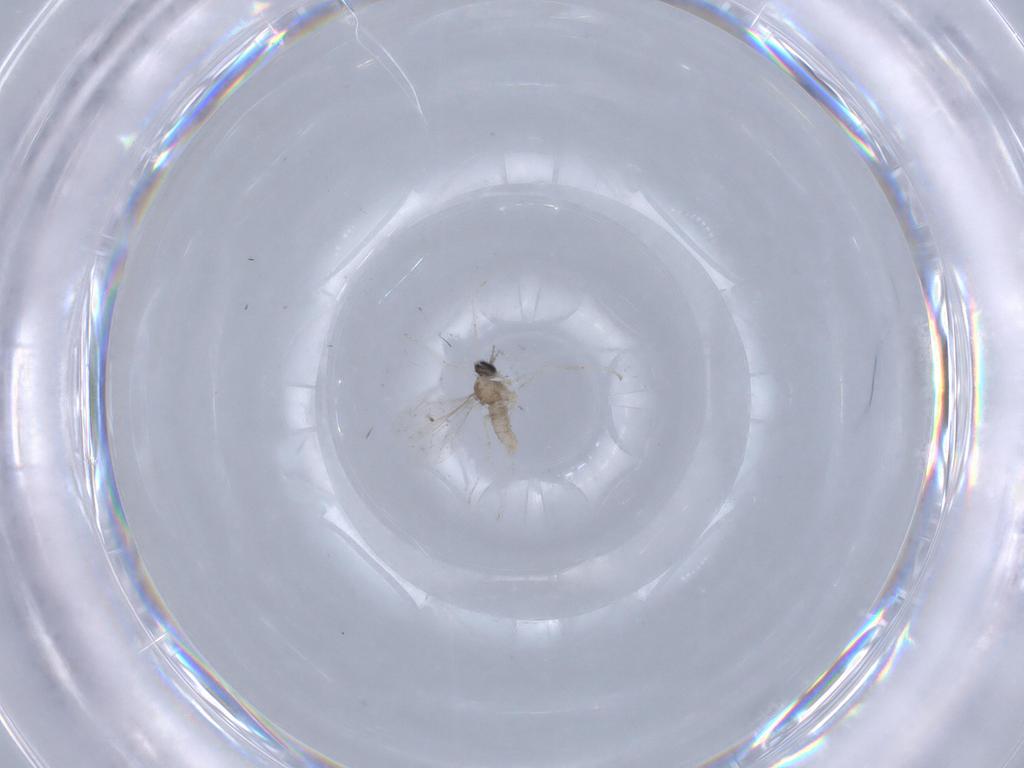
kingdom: Animalia
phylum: Arthropoda
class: Insecta
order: Diptera
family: Cecidomyiidae
